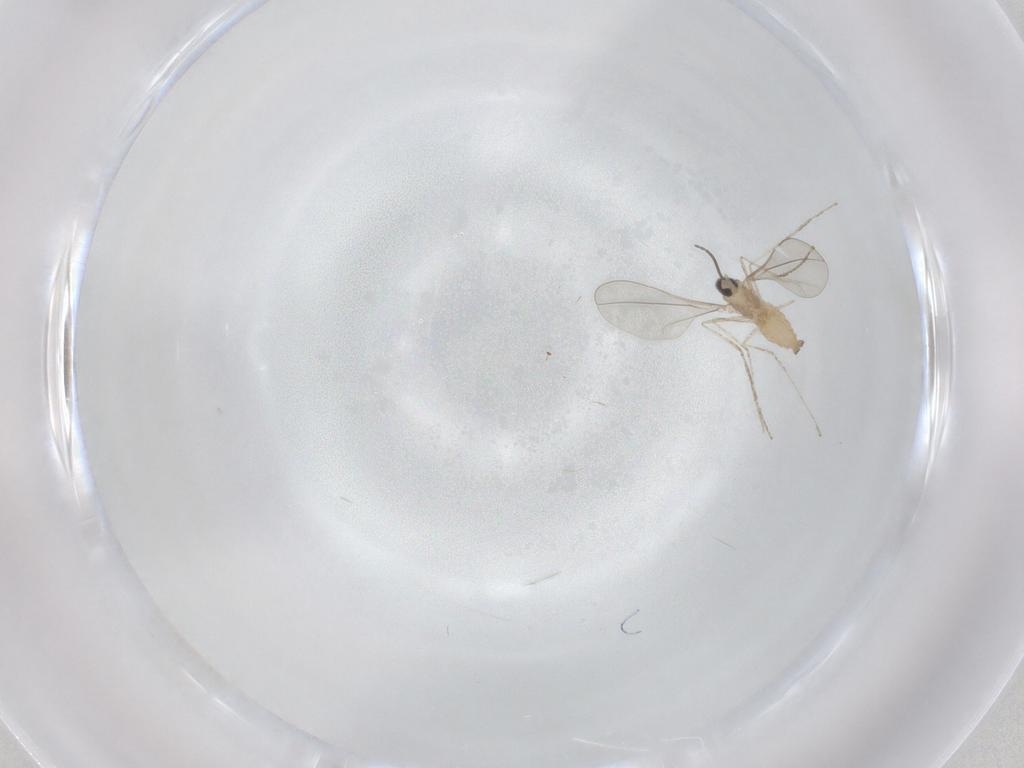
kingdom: Animalia
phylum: Arthropoda
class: Insecta
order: Diptera
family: Cecidomyiidae
